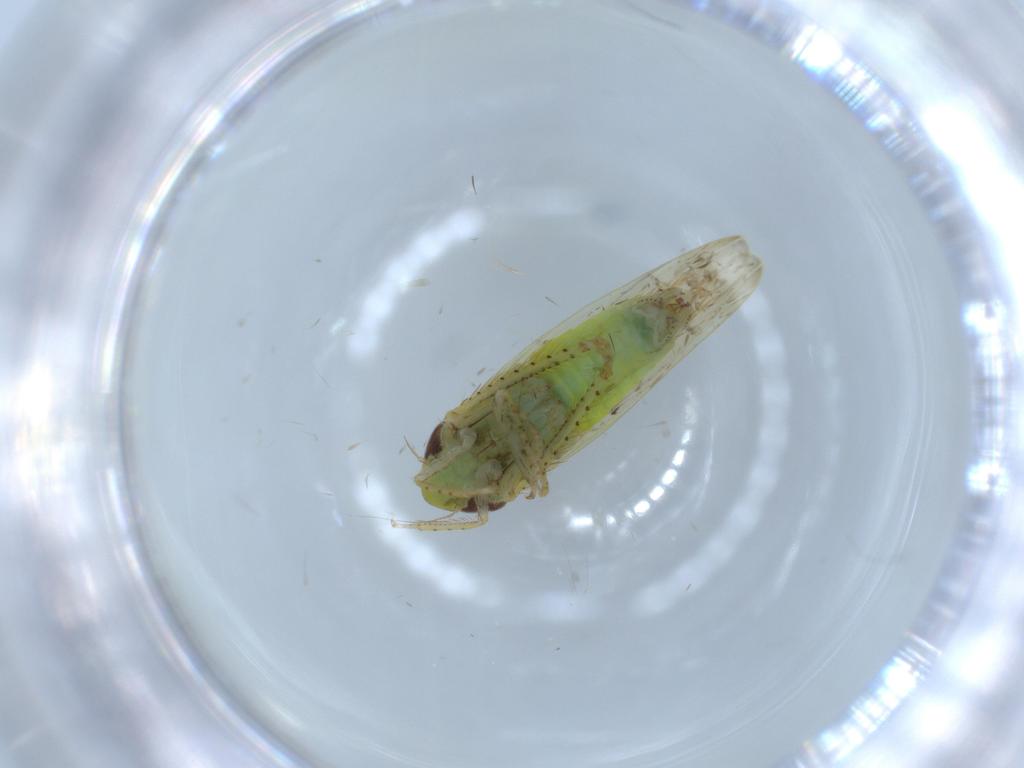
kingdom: Animalia
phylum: Arthropoda
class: Insecta
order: Hemiptera
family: Cicadellidae
